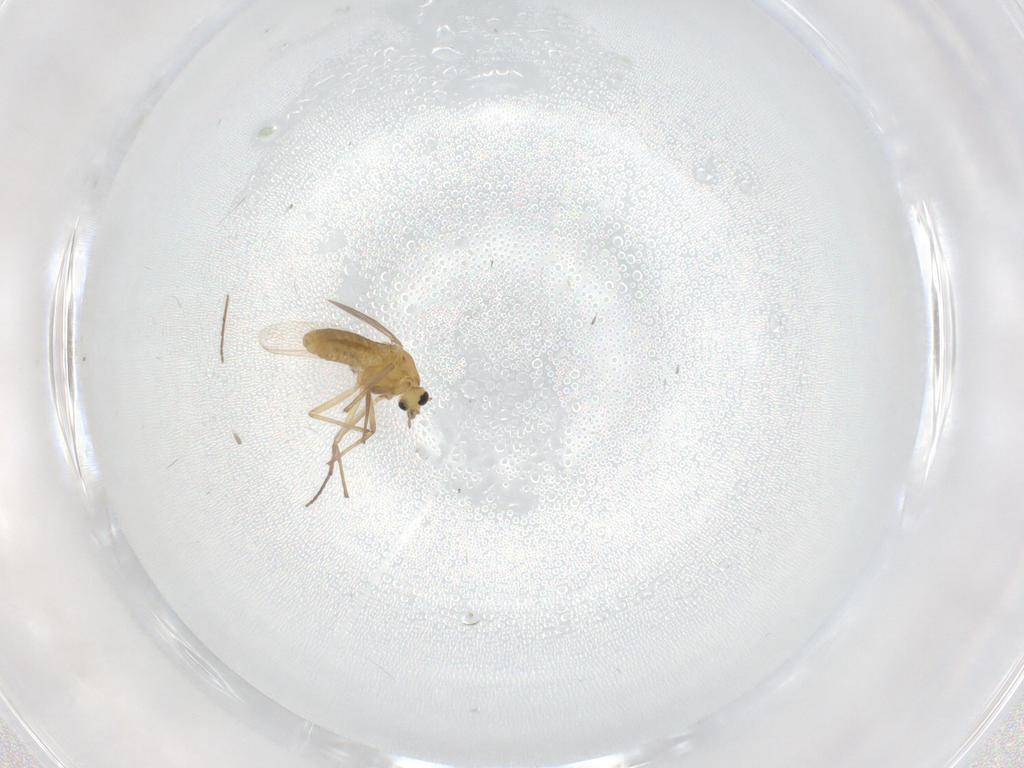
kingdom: Animalia
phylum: Arthropoda
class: Insecta
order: Diptera
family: Chironomidae
